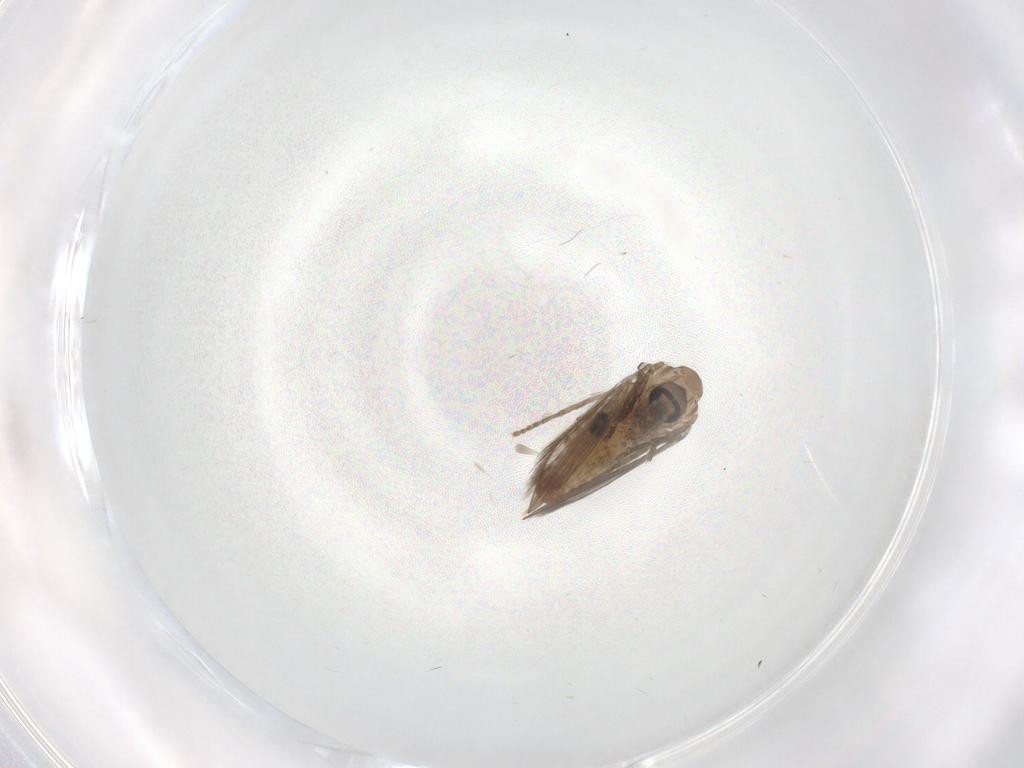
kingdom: Animalia
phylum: Arthropoda
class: Insecta
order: Diptera
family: Psychodidae
